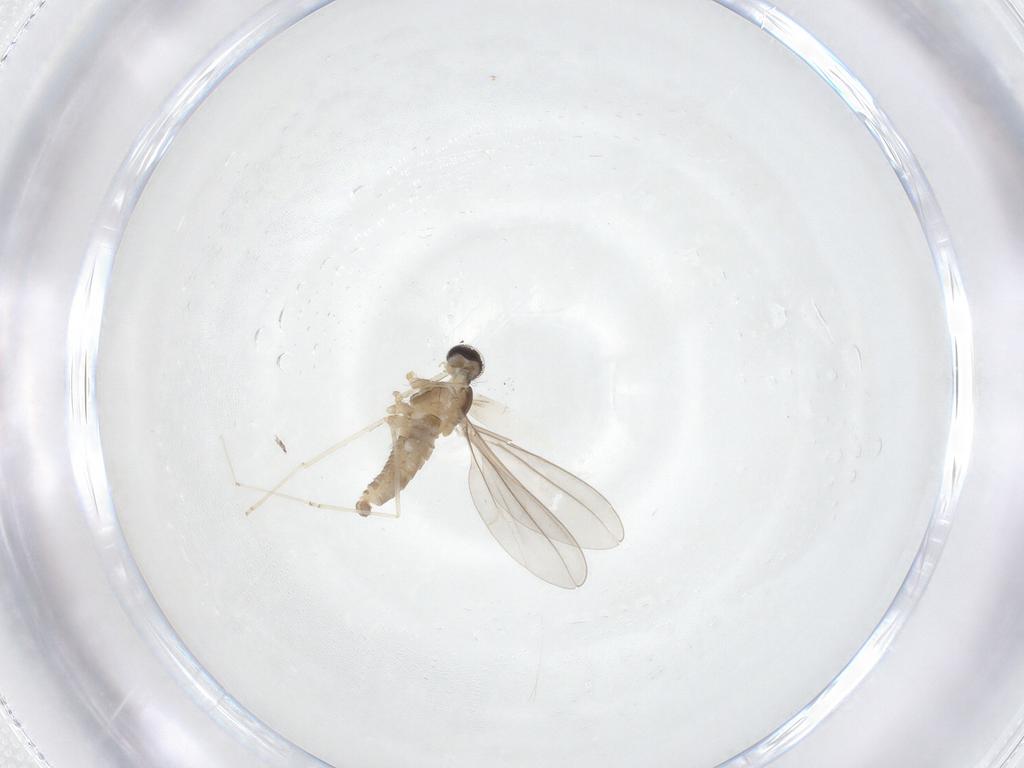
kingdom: Animalia
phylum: Arthropoda
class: Insecta
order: Diptera
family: Cecidomyiidae
